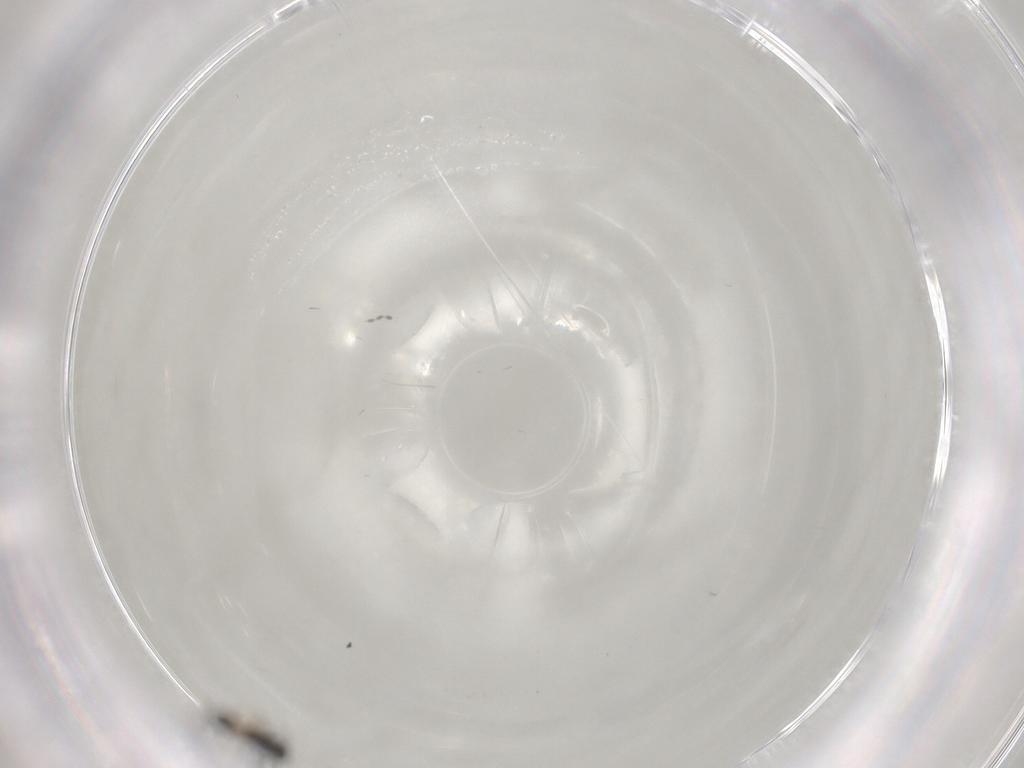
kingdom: Animalia
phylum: Arthropoda
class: Insecta
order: Hymenoptera
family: Platygastridae
